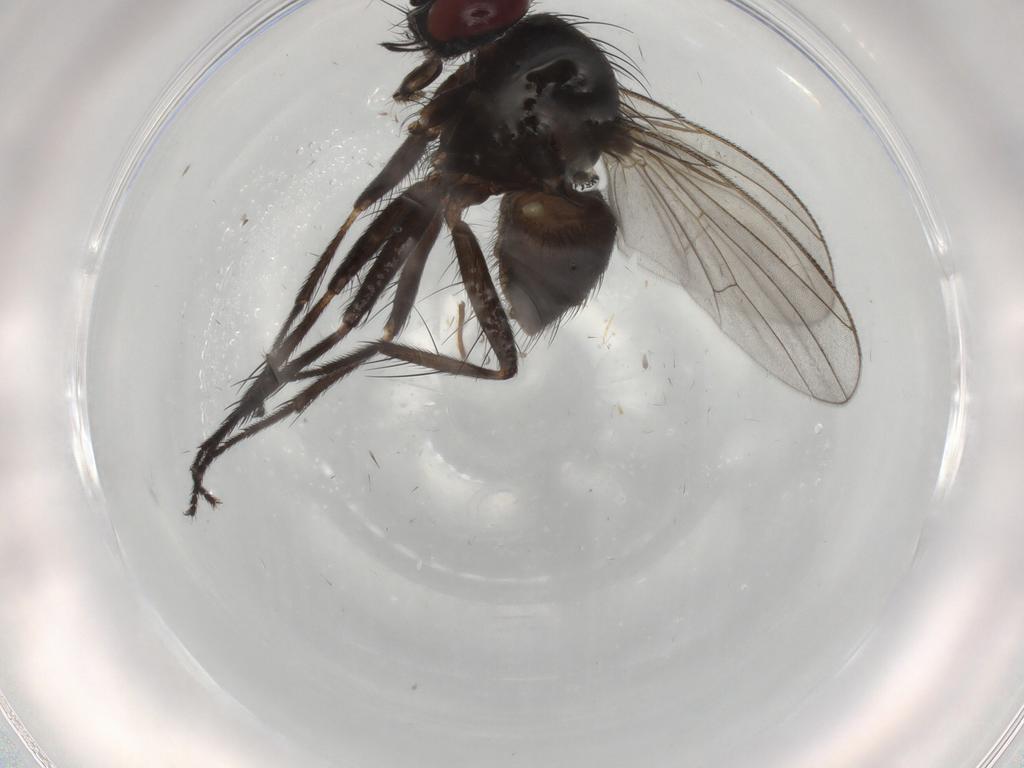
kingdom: Animalia
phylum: Arthropoda
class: Insecta
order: Diptera
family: Muscidae
